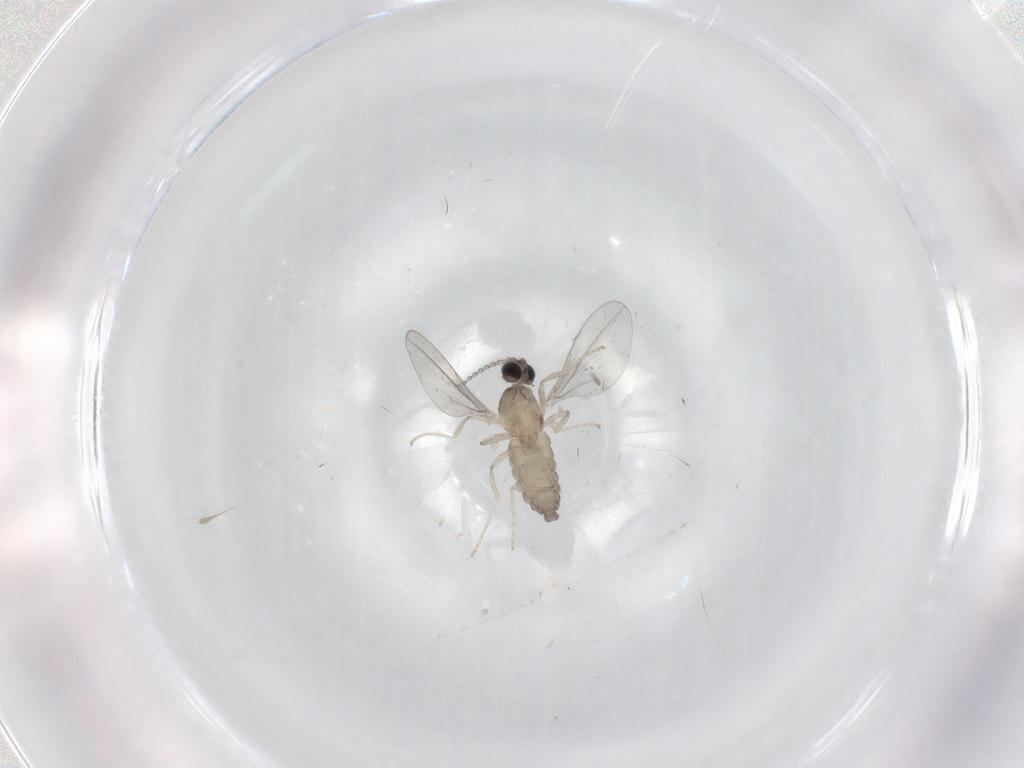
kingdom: Animalia
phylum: Arthropoda
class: Insecta
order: Diptera
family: Cecidomyiidae
